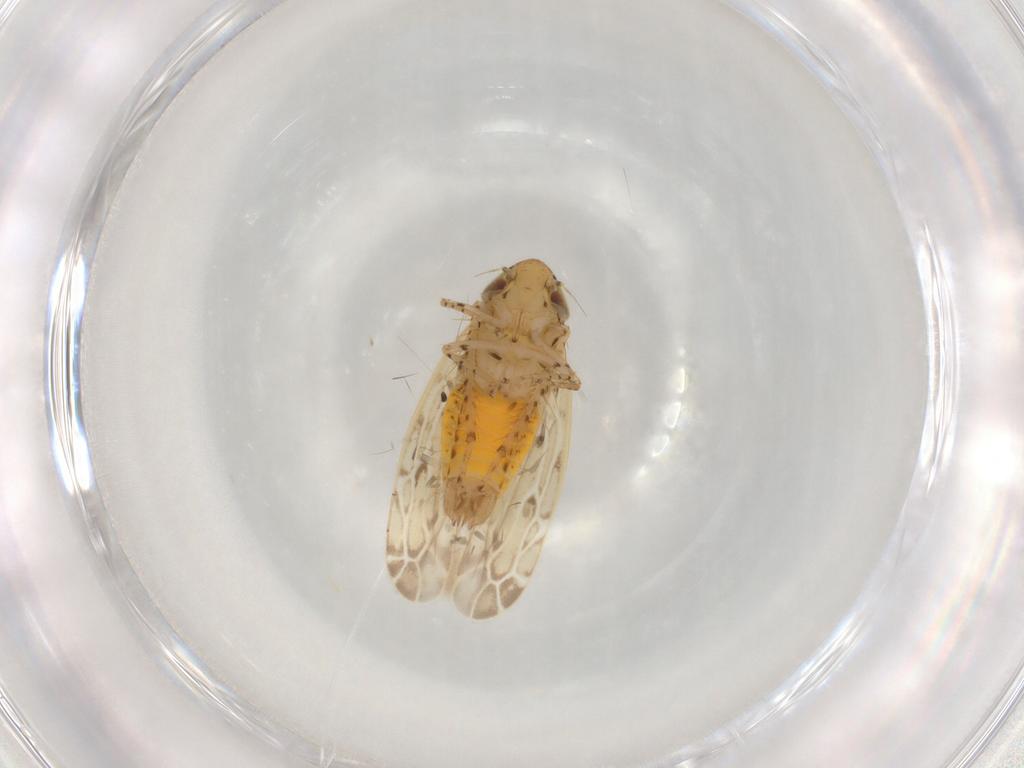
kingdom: Animalia
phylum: Arthropoda
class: Insecta
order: Hemiptera
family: Cicadellidae
